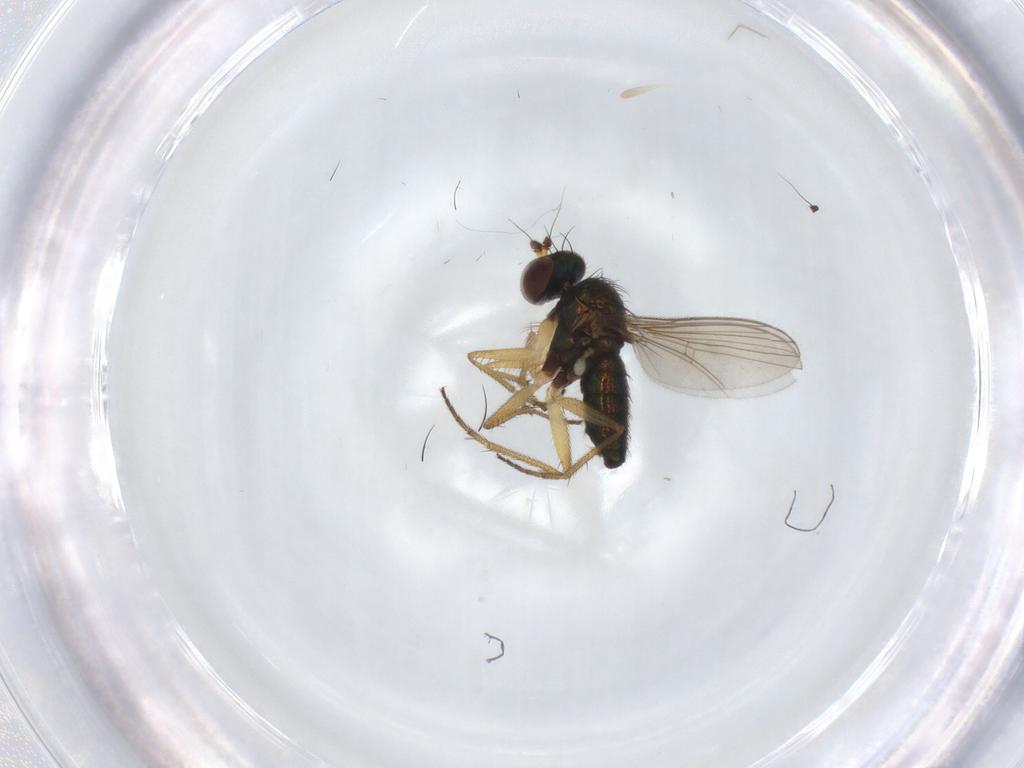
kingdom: Animalia
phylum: Arthropoda
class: Insecta
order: Diptera
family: Dolichopodidae
